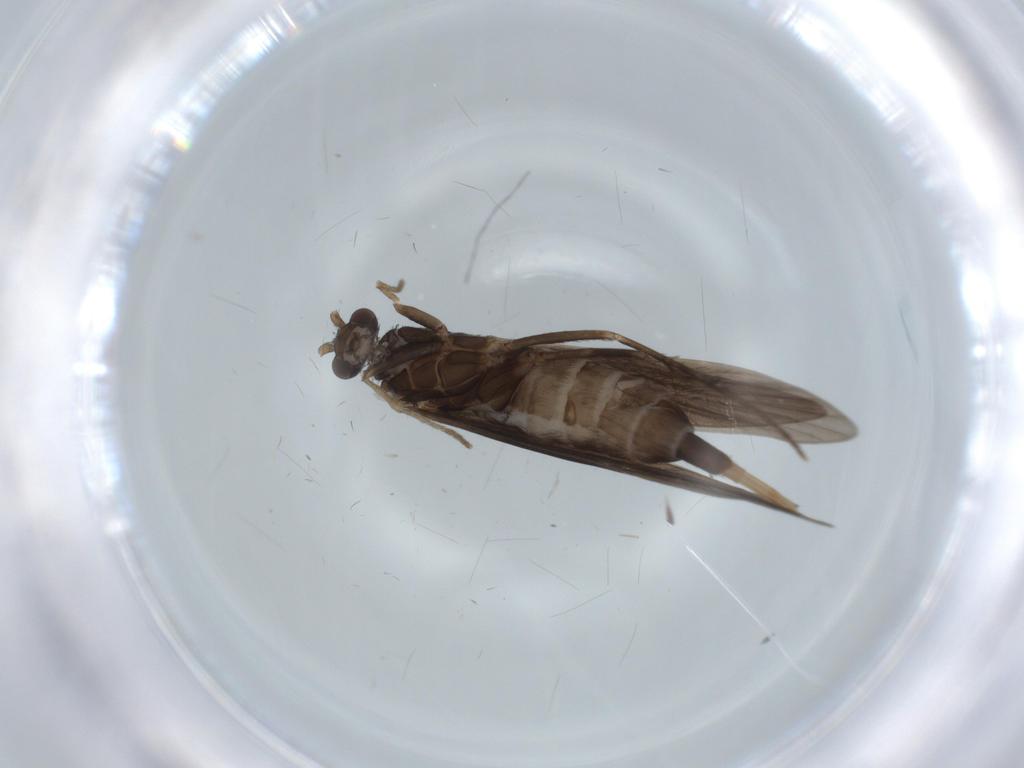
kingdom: Animalia
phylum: Arthropoda
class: Insecta
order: Trichoptera
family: Xiphocentronidae
